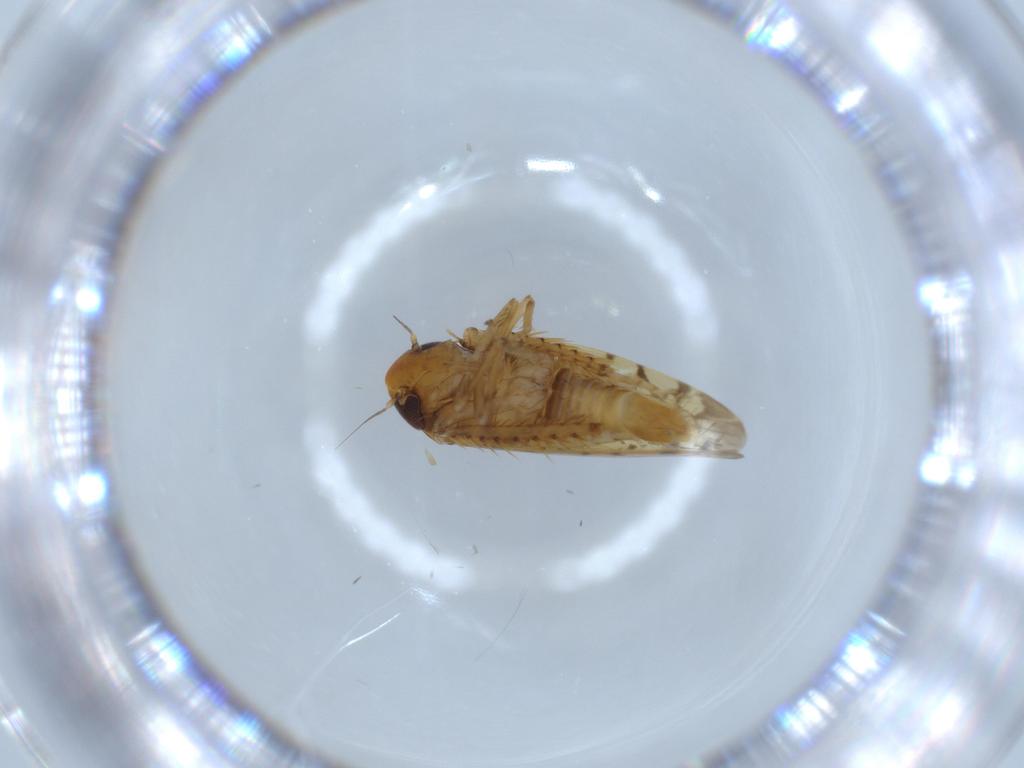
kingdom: Animalia
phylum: Arthropoda
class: Insecta
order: Hemiptera
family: Cicadellidae
